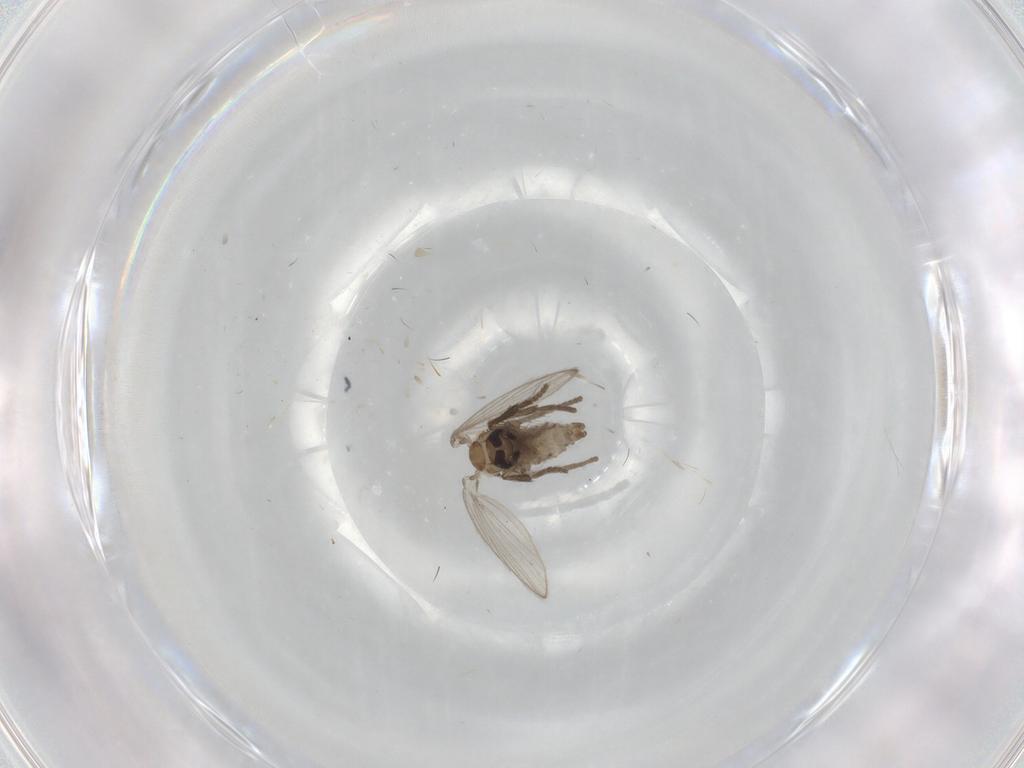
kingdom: Animalia
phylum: Arthropoda
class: Insecta
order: Diptera
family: Psychodidae
